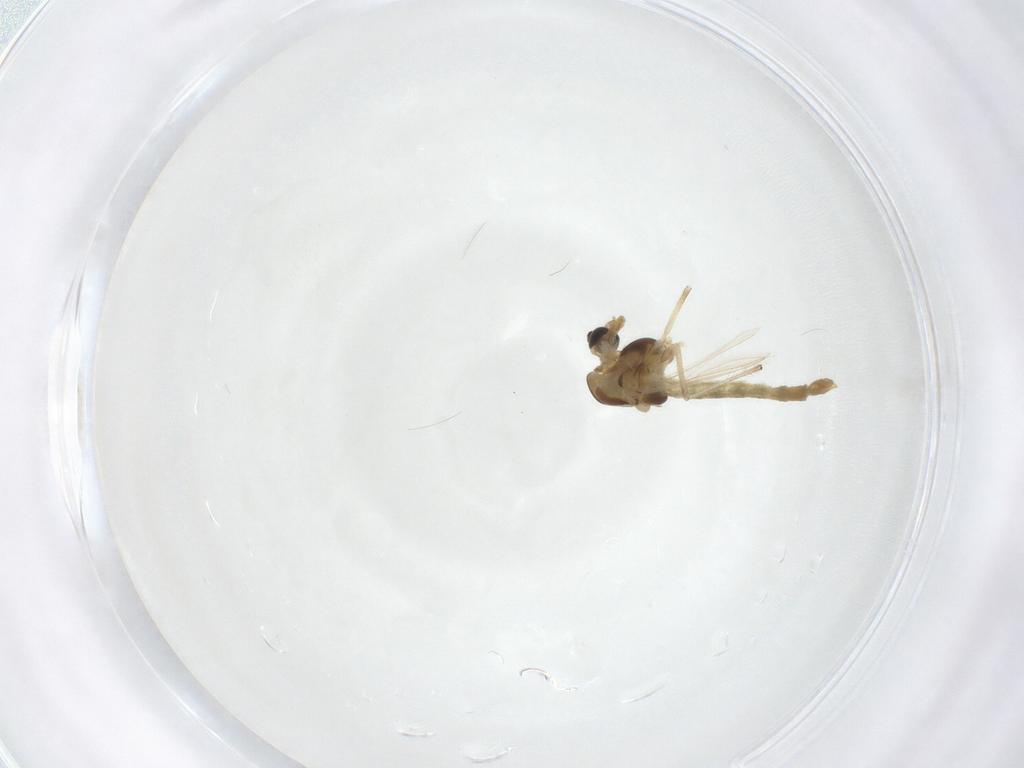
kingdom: Animalia
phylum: Arthropoda
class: Insecta
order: Diptera
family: Chironomidae
